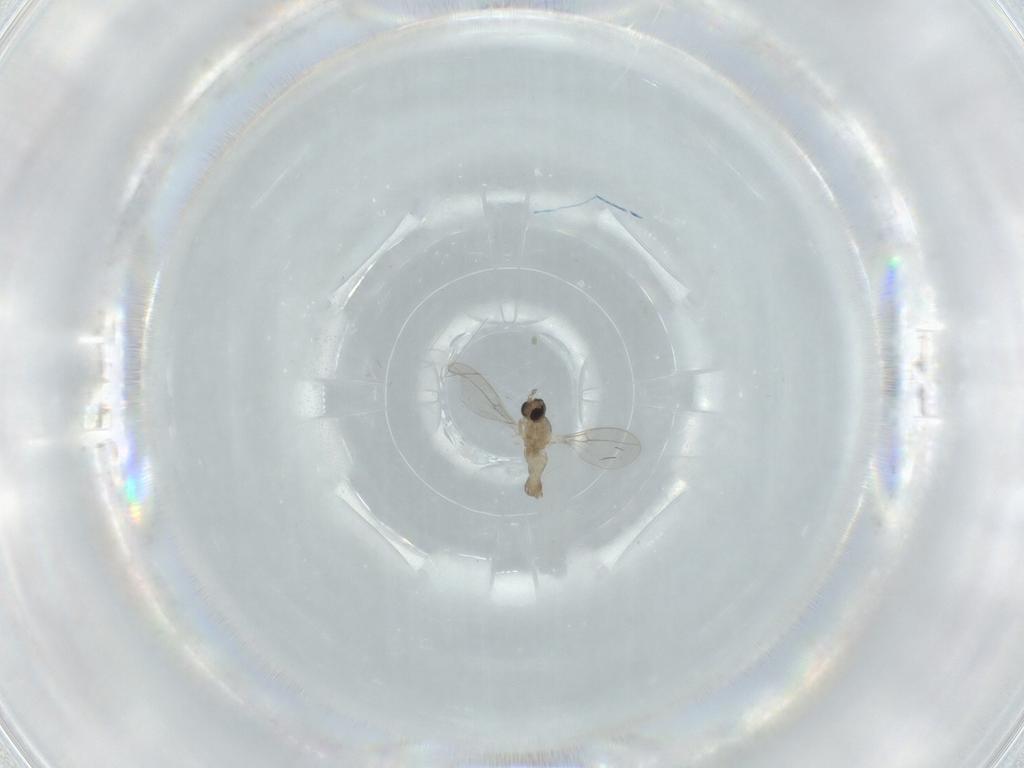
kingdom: Animalia
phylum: Arthropoda
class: Insecta
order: Diptera
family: Cecidomyiidae
